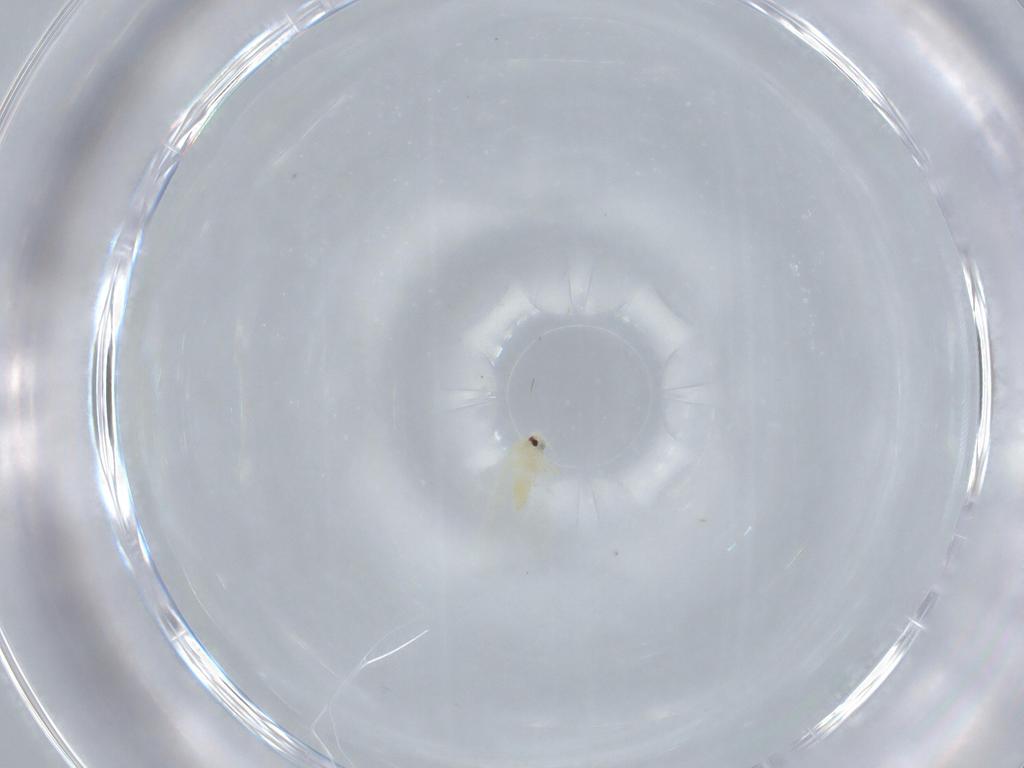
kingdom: Animalia
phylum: Arthropoda
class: Insecta
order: Hemiptera
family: Aleyrodidae
